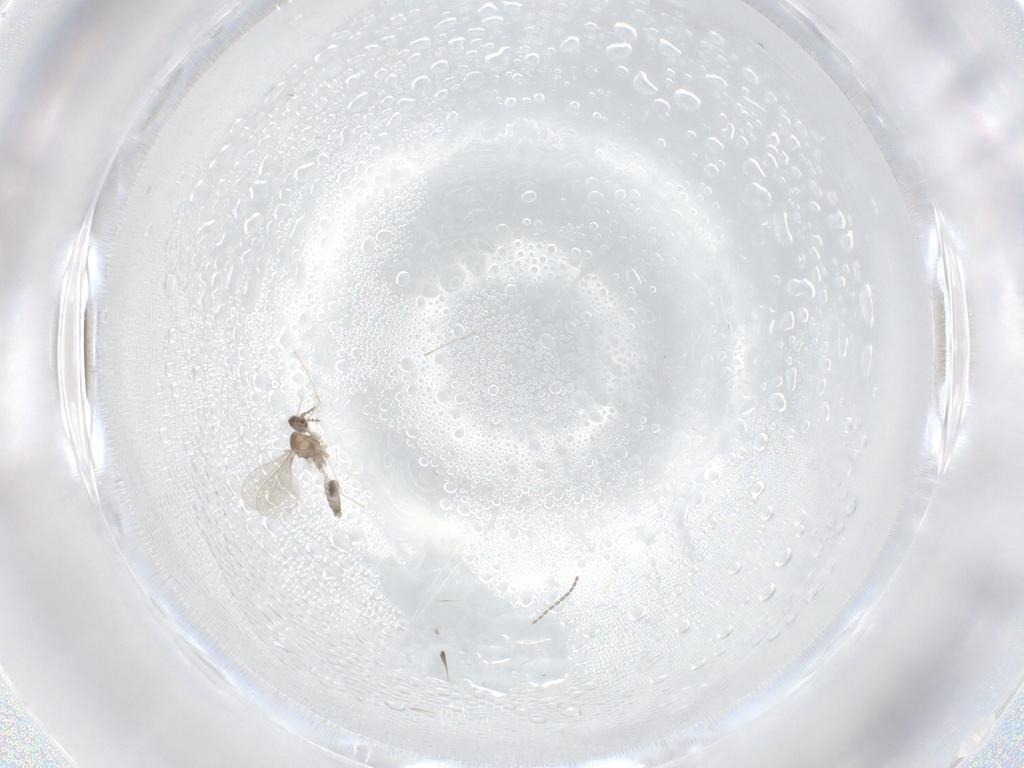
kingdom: Animalia
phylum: Arthropoda
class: Insecta
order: Diptera
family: Cecidomyiidae
